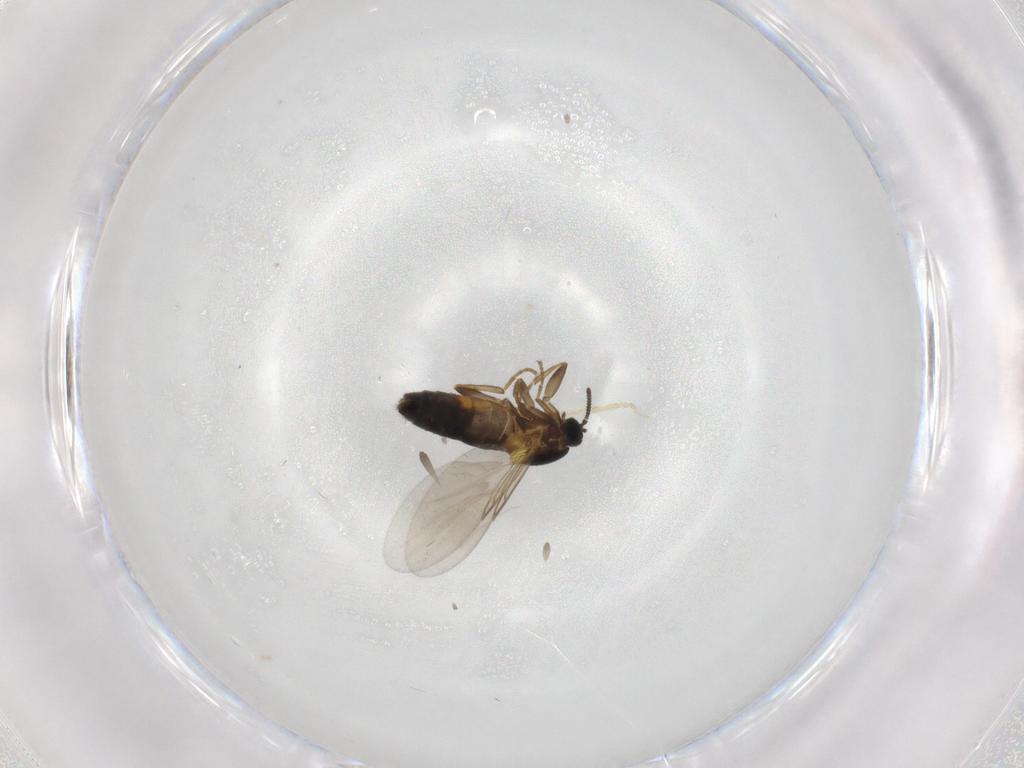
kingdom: Animalia
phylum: Arthropoda
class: Insecta
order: Diptera
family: Scatopsidae
